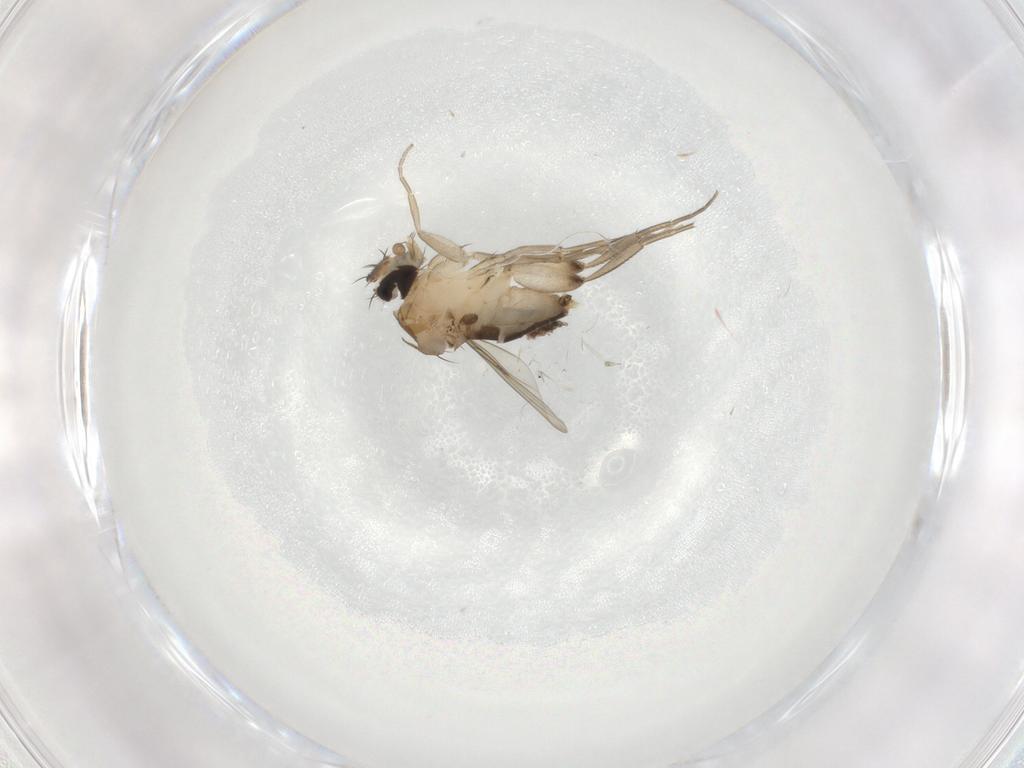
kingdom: Animalia
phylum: Arthropoda
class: Insecta
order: Diptera
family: Phoridae
